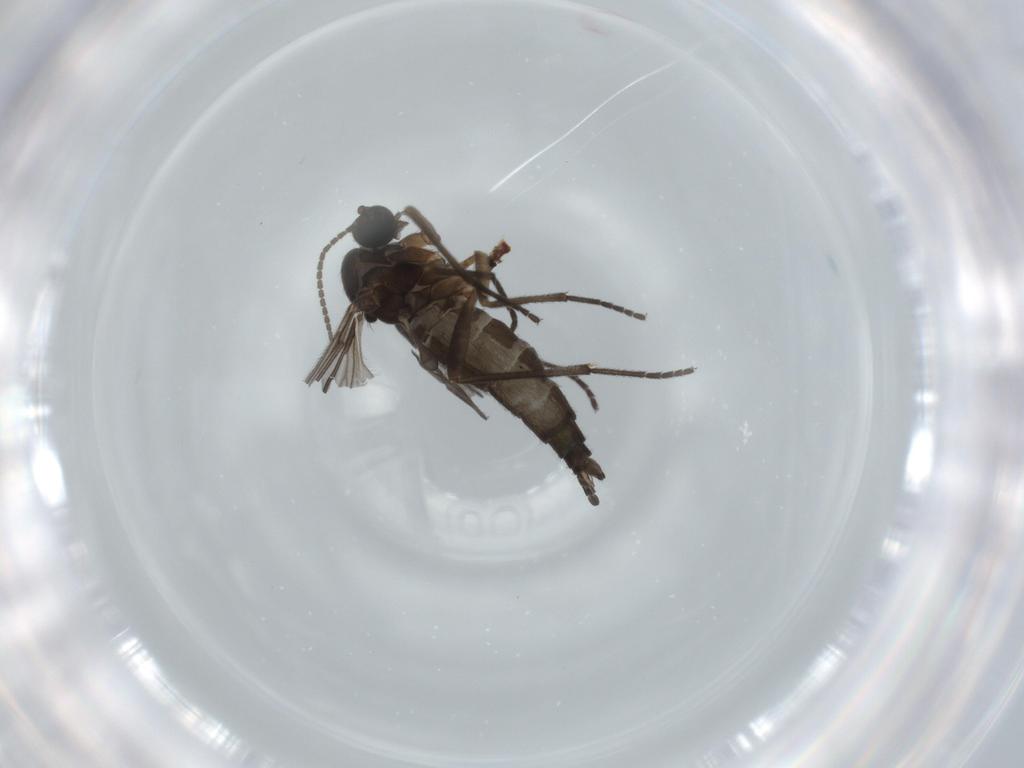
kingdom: Animalia
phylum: Arthropoda
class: Insecta
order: Diptera
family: Sciaridae
